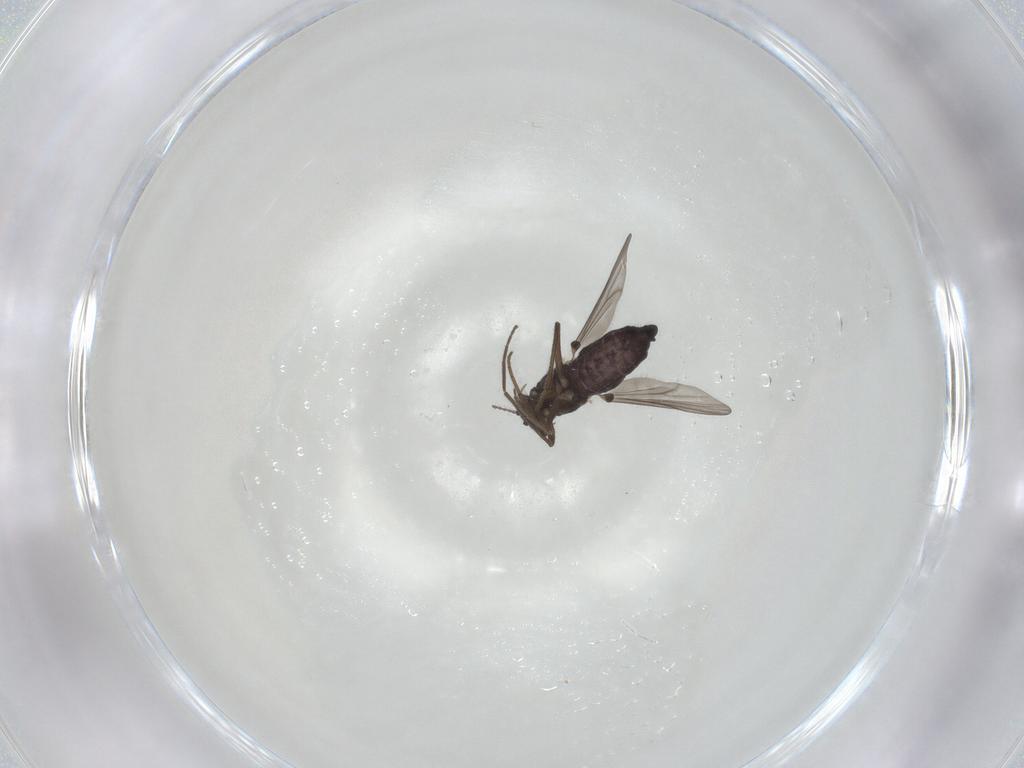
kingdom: Animalia
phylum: Arthropoda
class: Insecta
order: Diptera
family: Chironomidae
